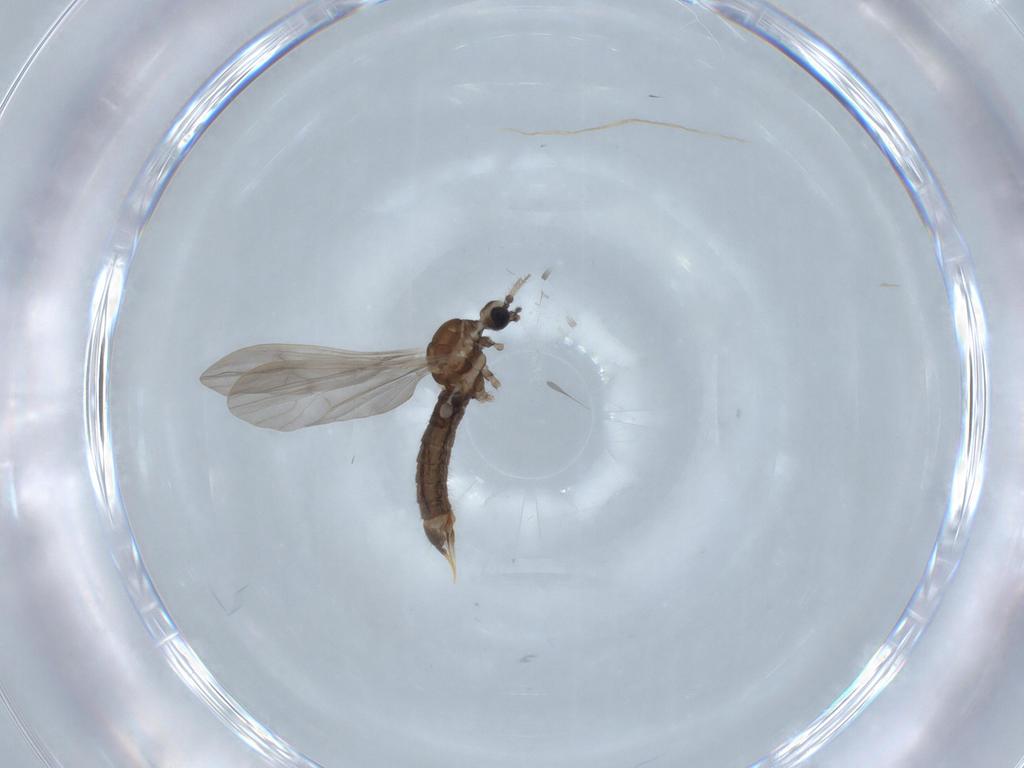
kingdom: Animalia
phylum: Arthropoda
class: Insecta
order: Diptera
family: Limoniidae
